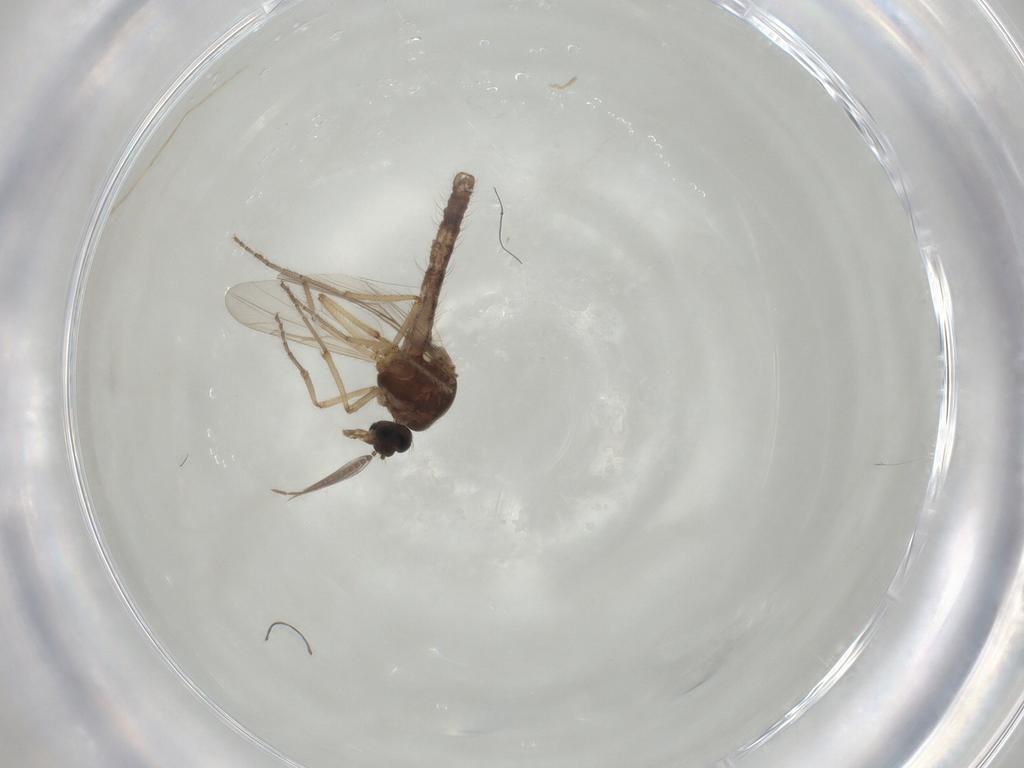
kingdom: Animalia
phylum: Arthropoda
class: Insecta
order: Diptera
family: Ceratopogonidae
